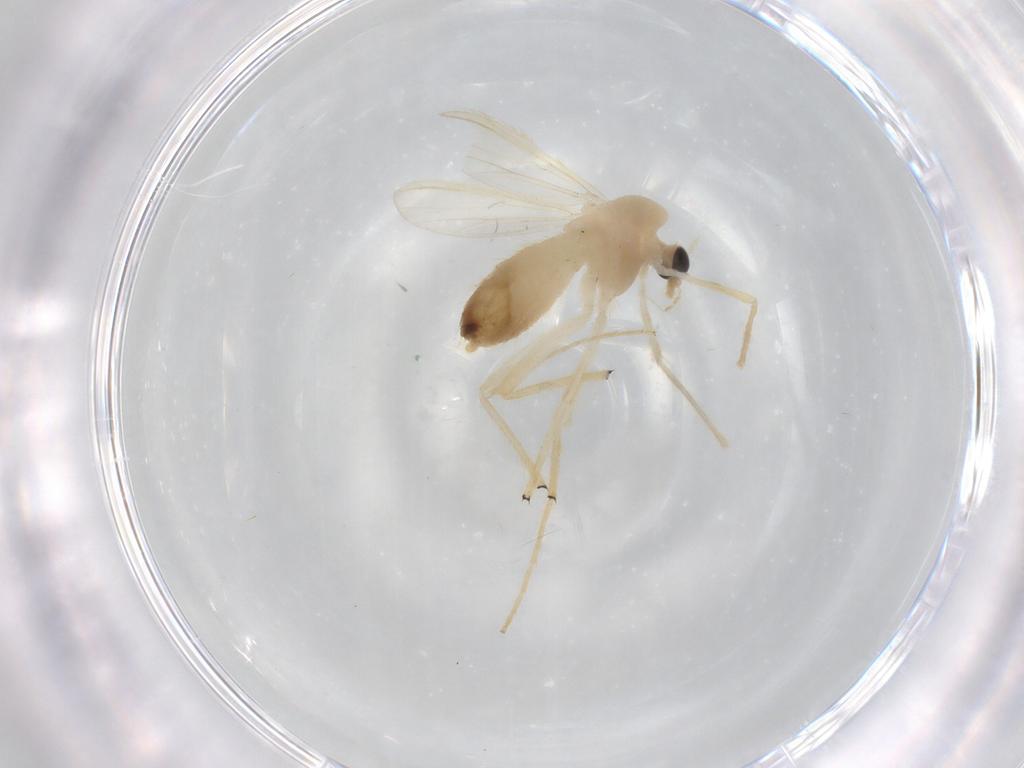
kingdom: Animalia
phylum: Arthropoda
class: Insecta
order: Diptera
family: Chironomidae
